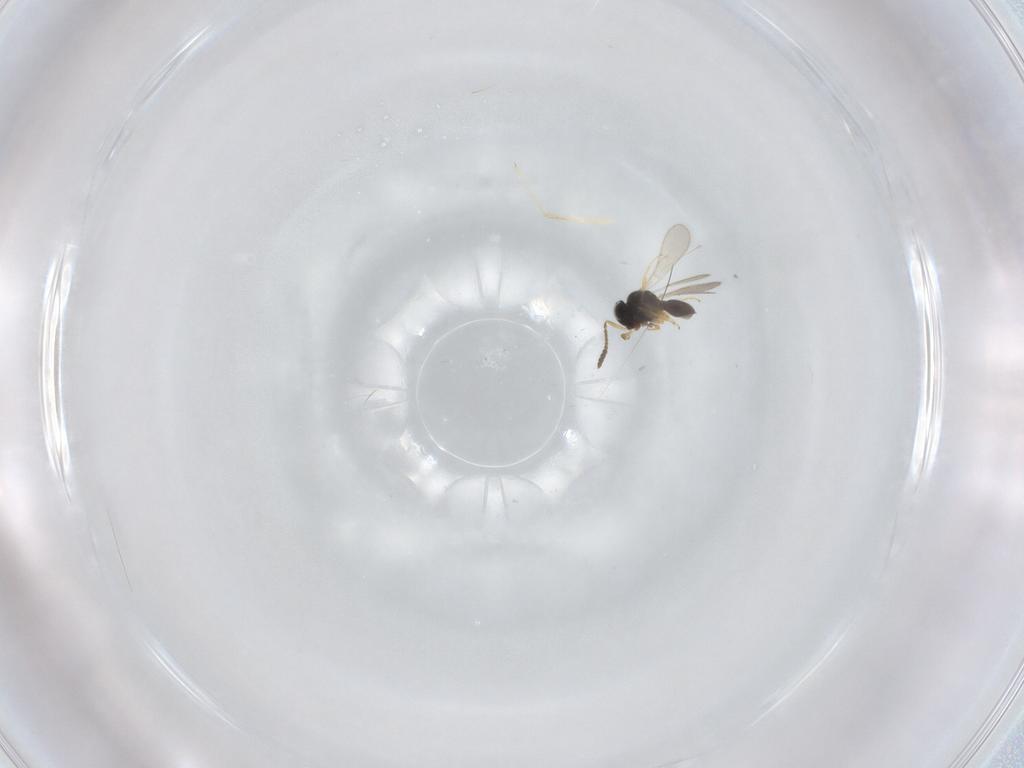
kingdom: Animalia
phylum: Arthropoda
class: Insecta
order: Hymenoptera
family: Scelionidae
